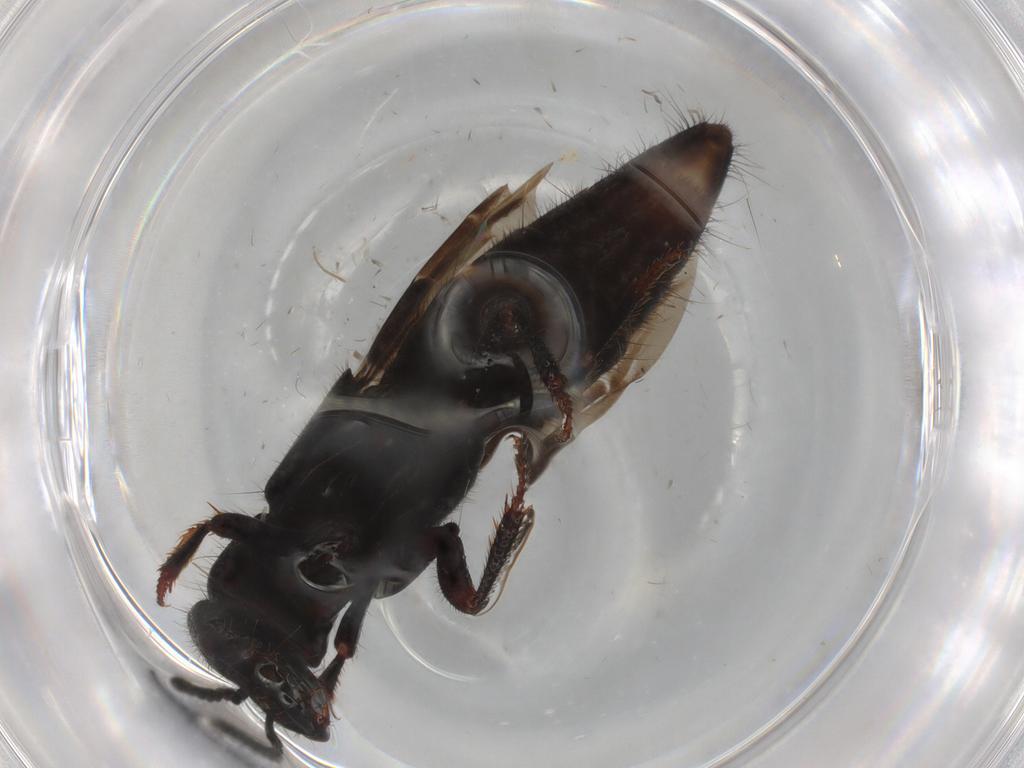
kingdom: Animalia
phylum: Arthropoda
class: Insecta
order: Coleoptera
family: Staphylinidae
